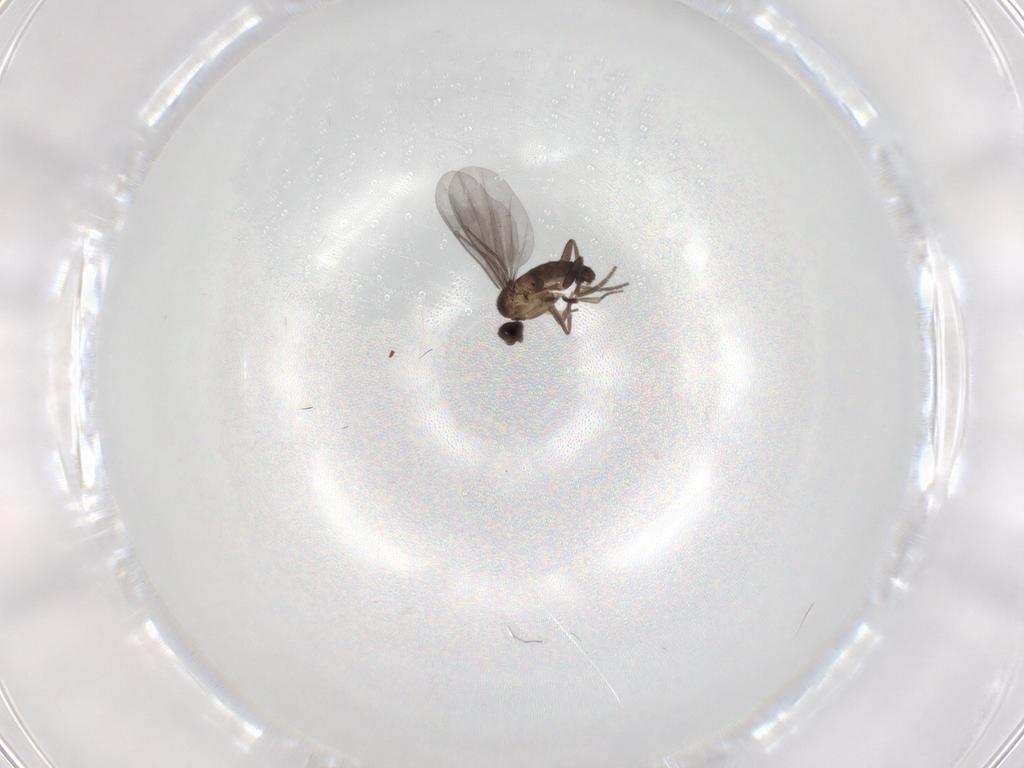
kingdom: Animalia
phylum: Arthropoda
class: Insecta
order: Diptera
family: Phoridae
